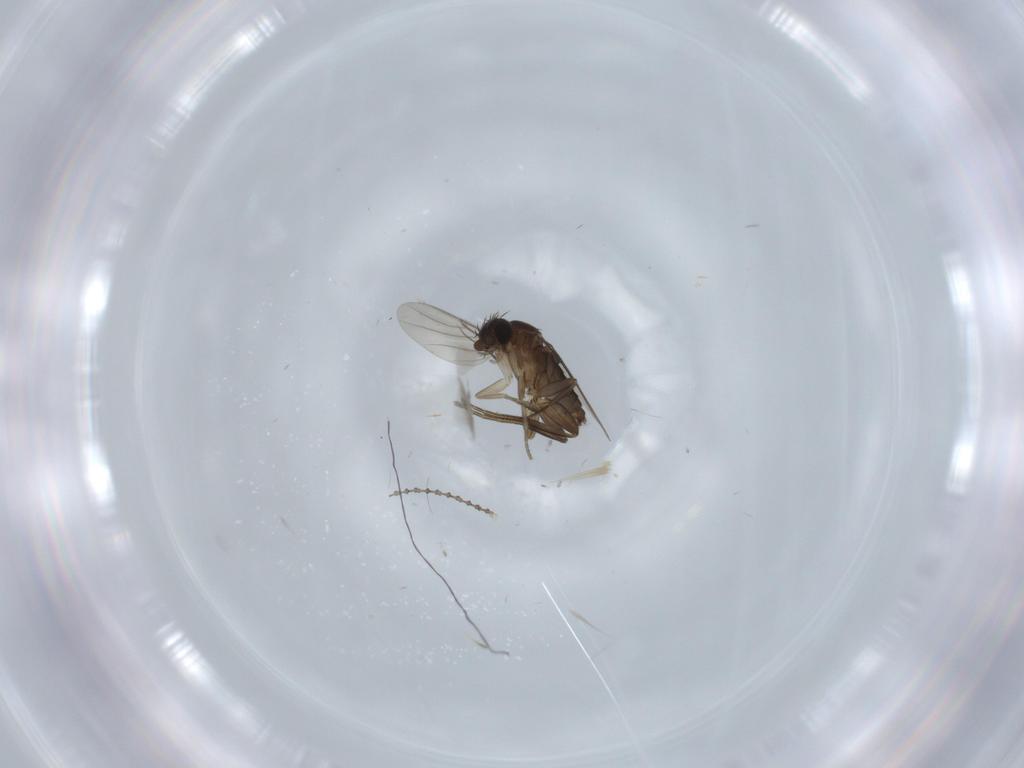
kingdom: Animalia
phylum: Arthropoda
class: Insecta
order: Diptera
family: Phoridae
